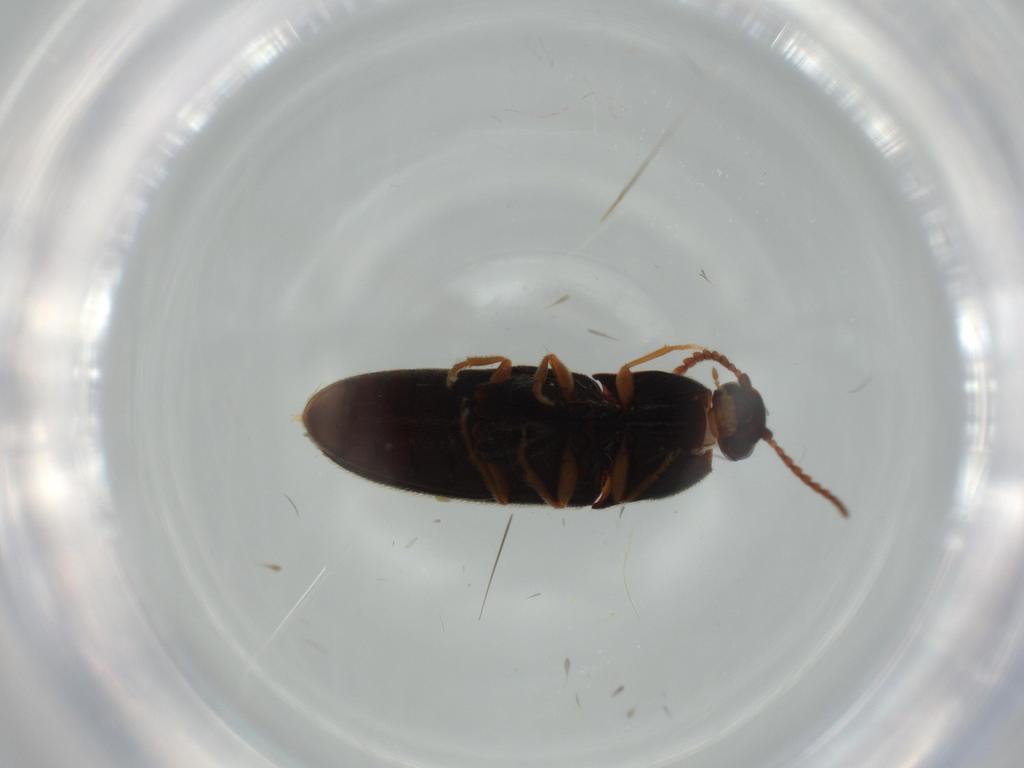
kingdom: Animalia
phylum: Arthropoda
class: Insecta
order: Coleoptera
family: Elateridae
